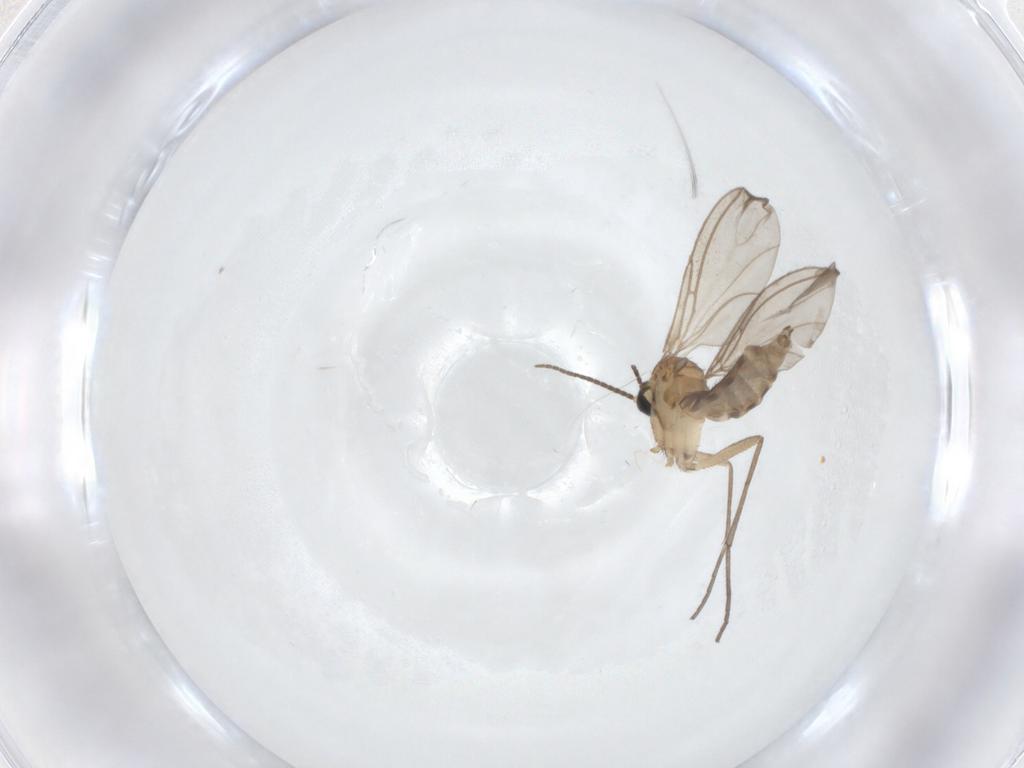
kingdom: Animalia
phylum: Arthropoda
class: Insecta
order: Diptera
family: Sciaridae
